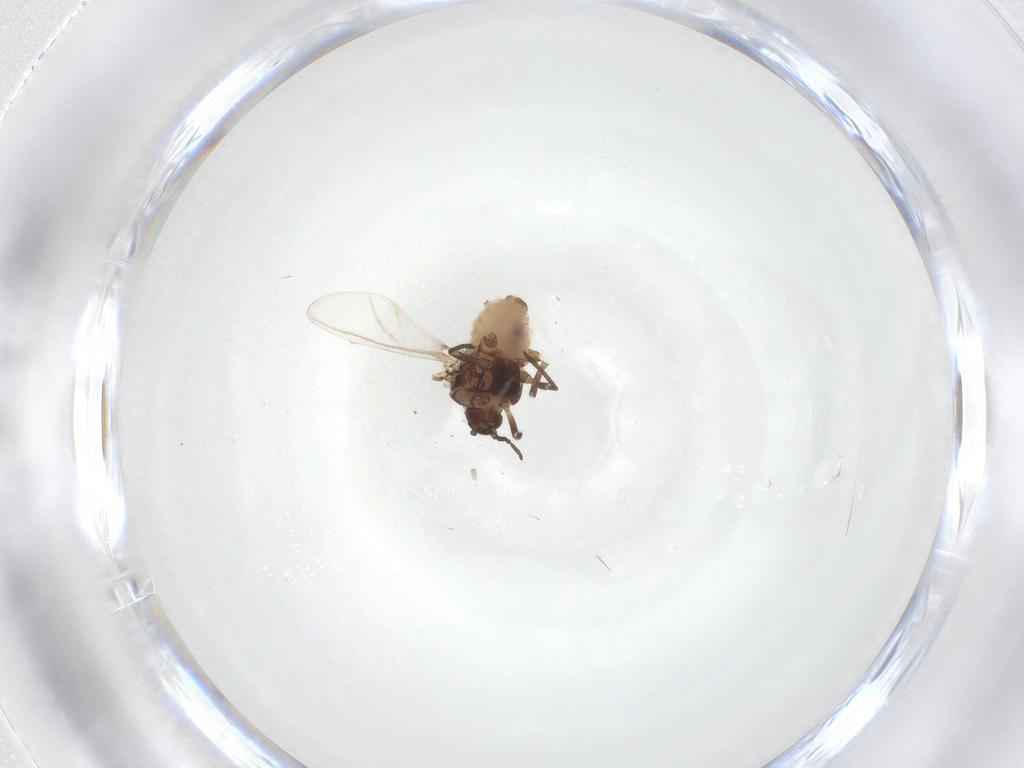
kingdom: Animalia
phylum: Arthropoda
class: Insecta
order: Hemiptera
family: Aphididae
